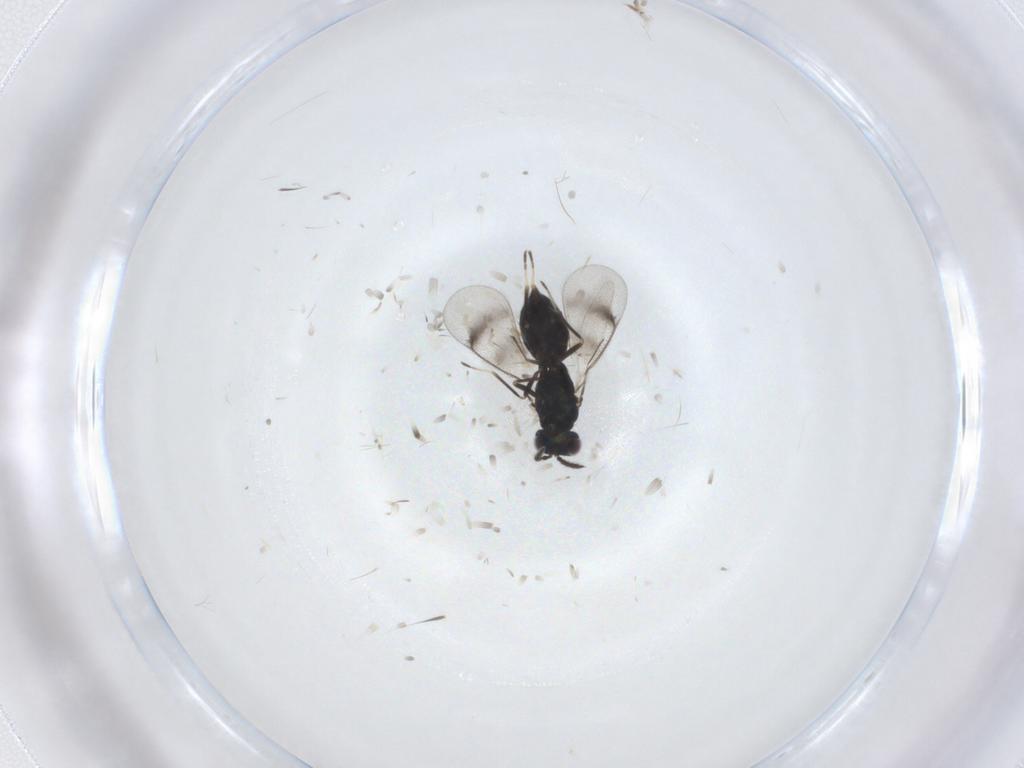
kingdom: Animalia
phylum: Arthropoda
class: Insecta
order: Hymenoptera
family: Eulophidae
